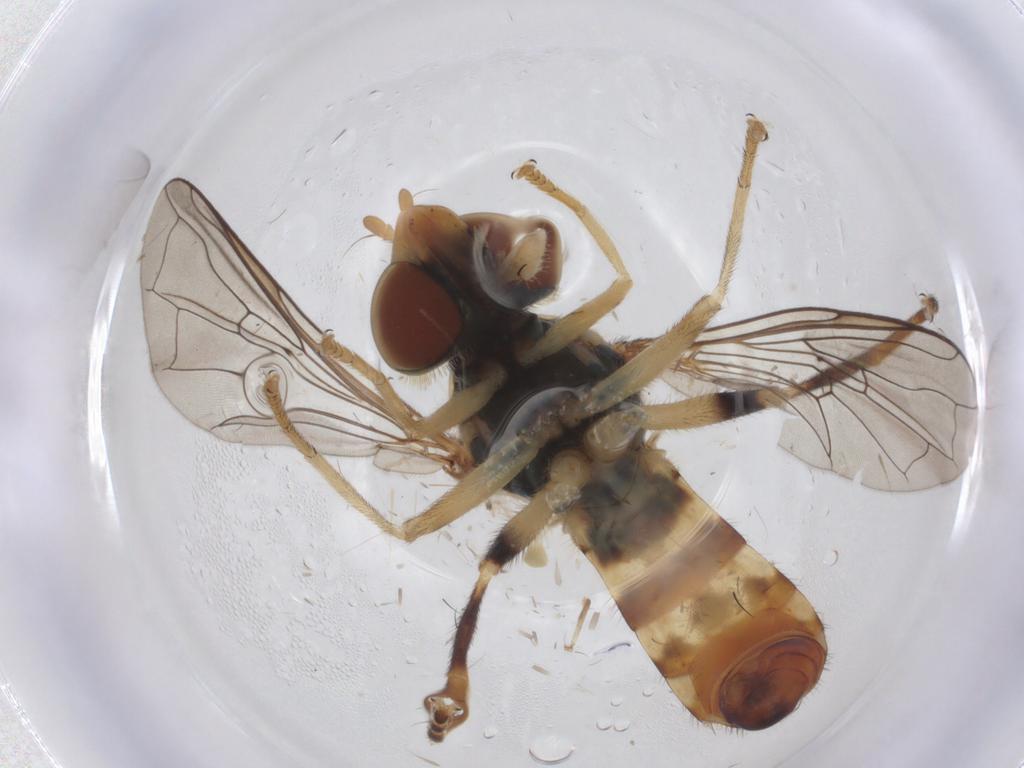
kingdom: Animalia
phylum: Arthropoda
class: Insecta
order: Diptera
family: Syrphidae
